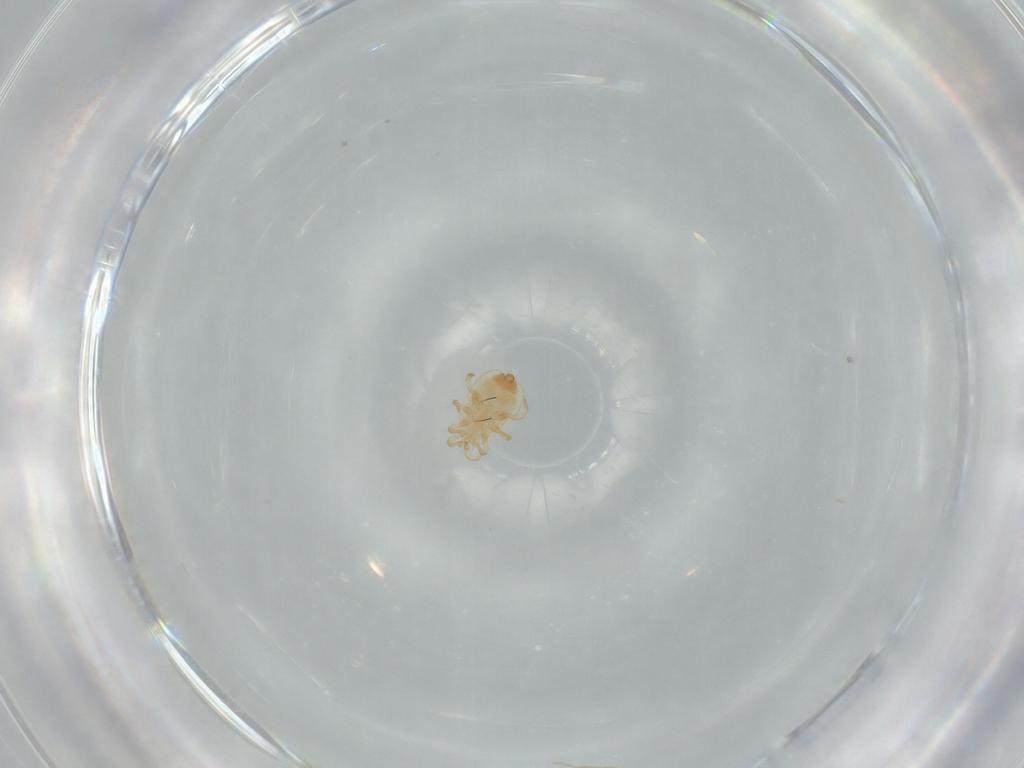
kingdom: Animalia
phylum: Arthropoda
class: Arachnida
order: Mesostigmata
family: Uropodellidae
